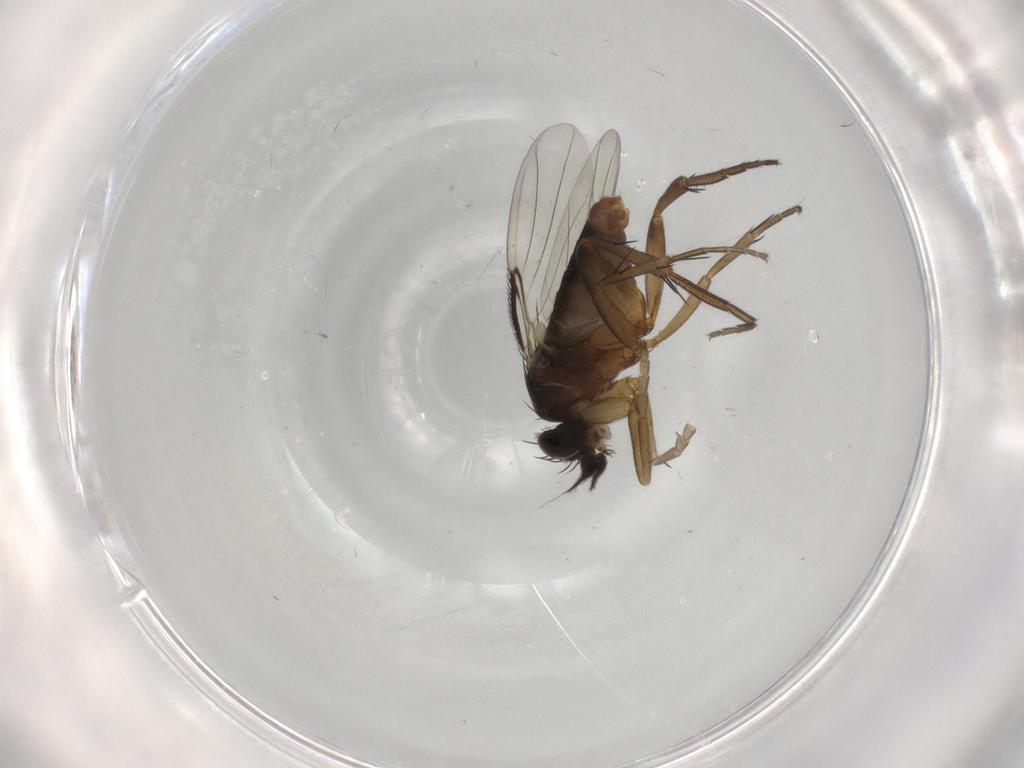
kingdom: Animalia
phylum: Arthropoda
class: Insecta
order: Diptera
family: Phoridae
